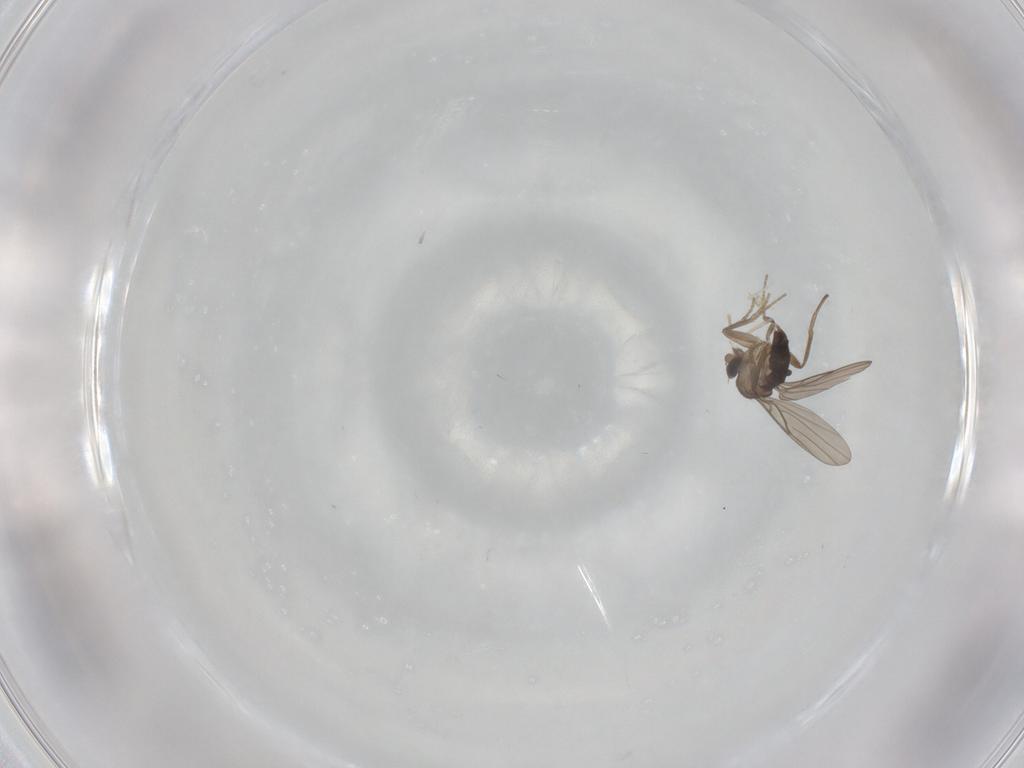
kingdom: Animalia
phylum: Arthropoda
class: Insecta
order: Diptera
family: Phoridae
